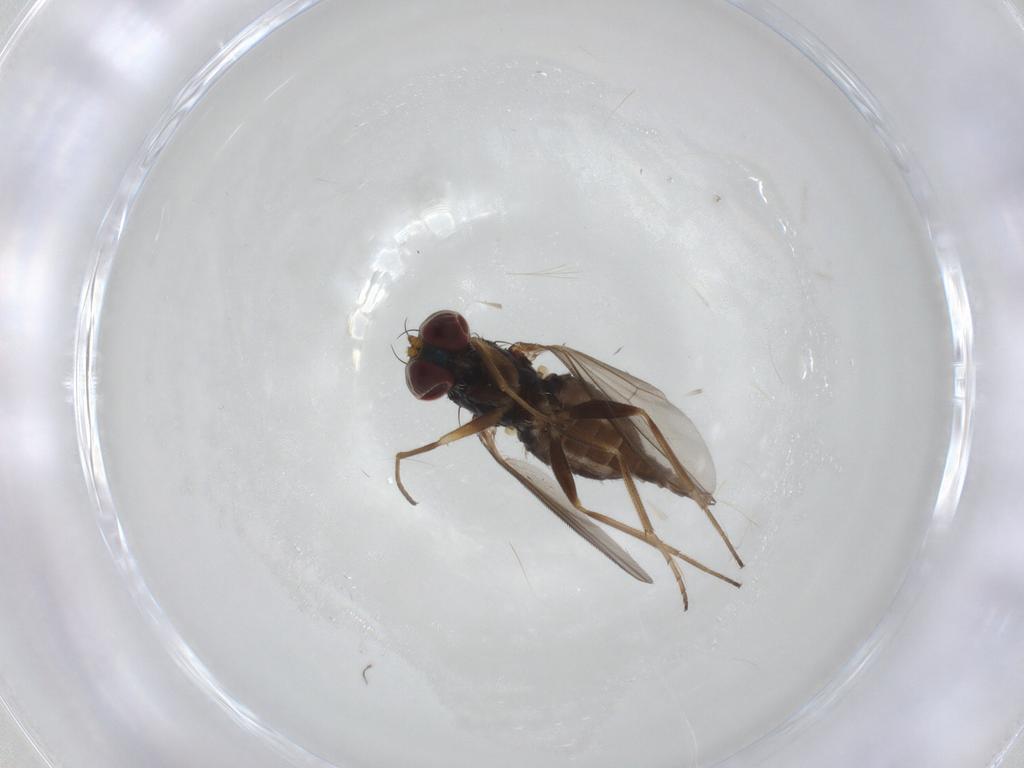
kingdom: Animalia
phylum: Arthropoda
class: Insecta
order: Diptera
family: Dolichopodidae
